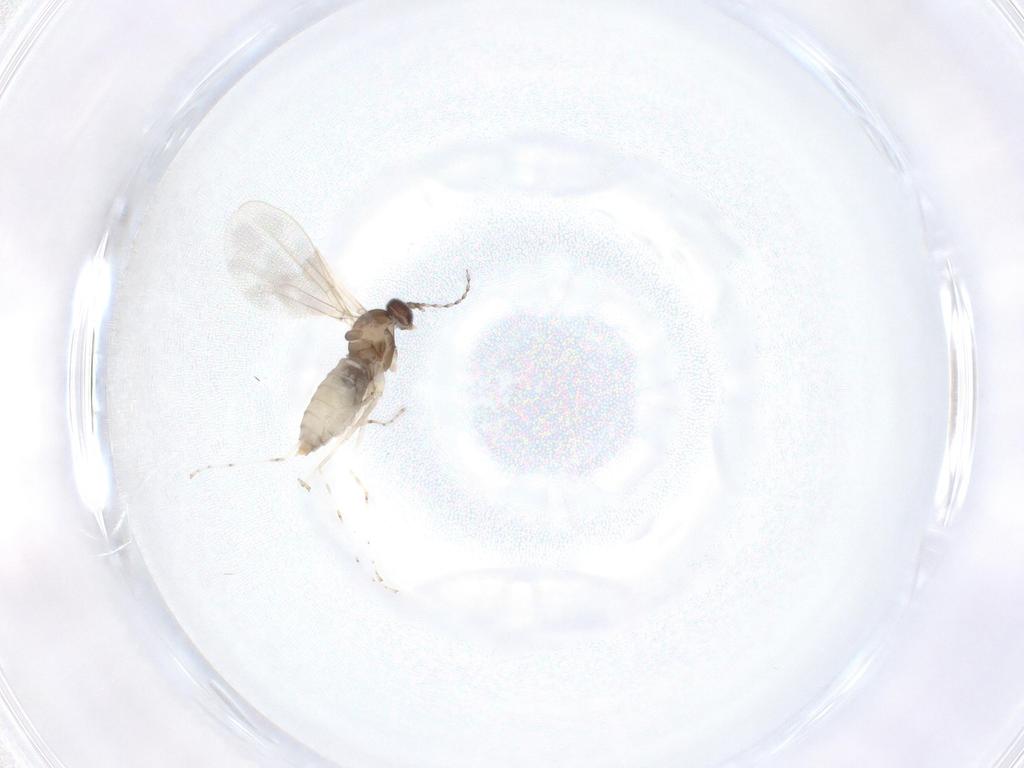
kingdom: Animalia
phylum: Arthropoda
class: Insecta
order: Diptera
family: Cecidomyiidae
